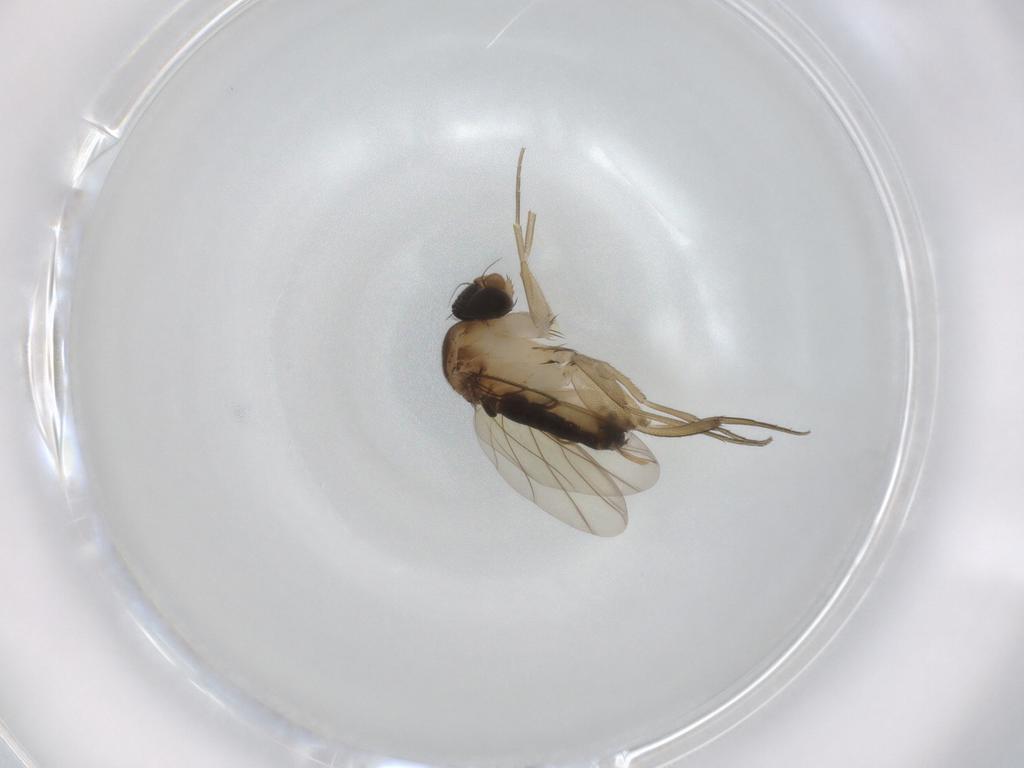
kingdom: Animalia
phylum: Arthropoda
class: Insecta
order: Diptera
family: Phoridae
